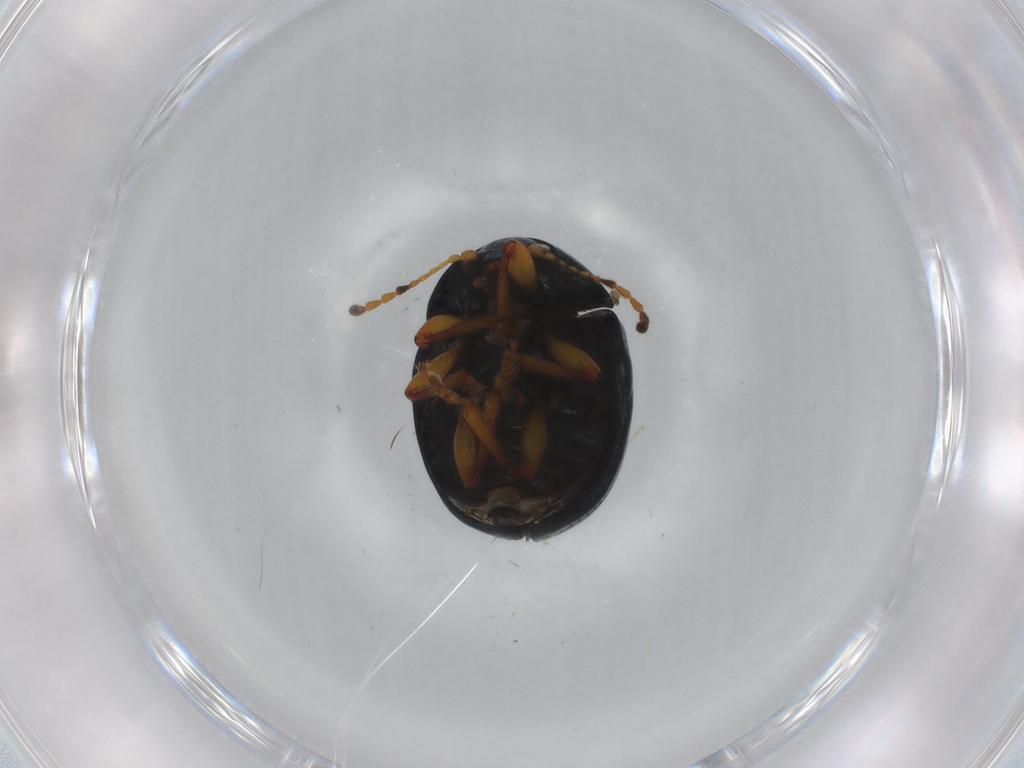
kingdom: Animalia
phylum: Arthropoda
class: Insecta
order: Coleoptera
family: Chrysomelidae
